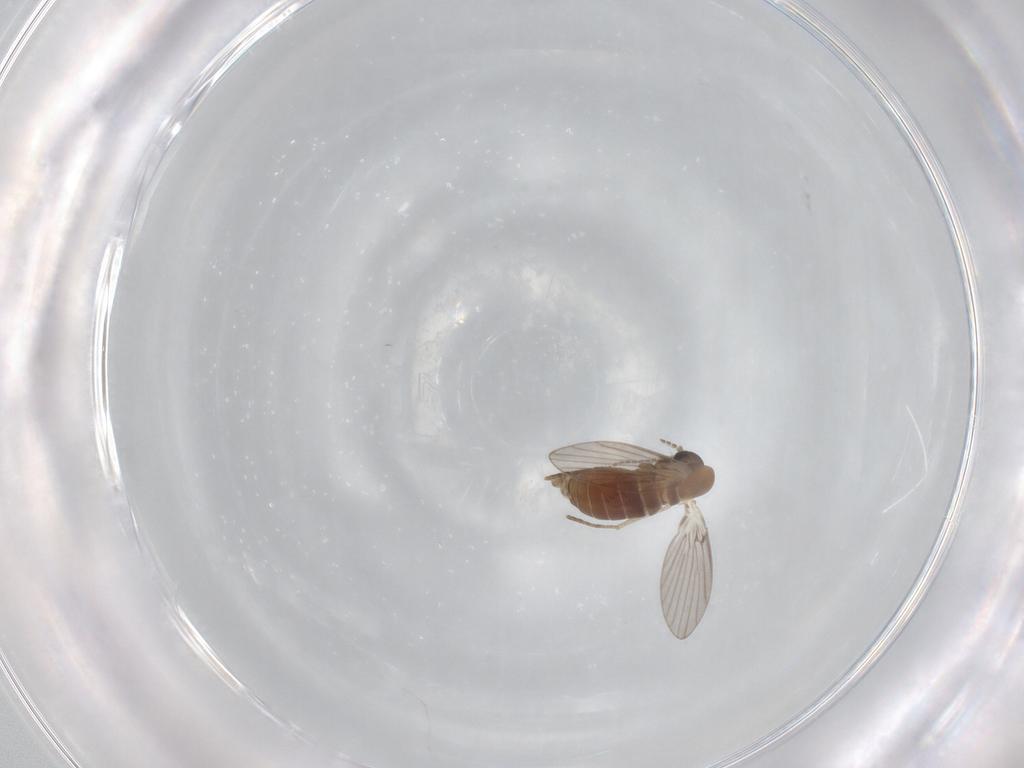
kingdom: Animalia
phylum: Arthropoda
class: Insecta
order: Diptera
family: Psychodidae
